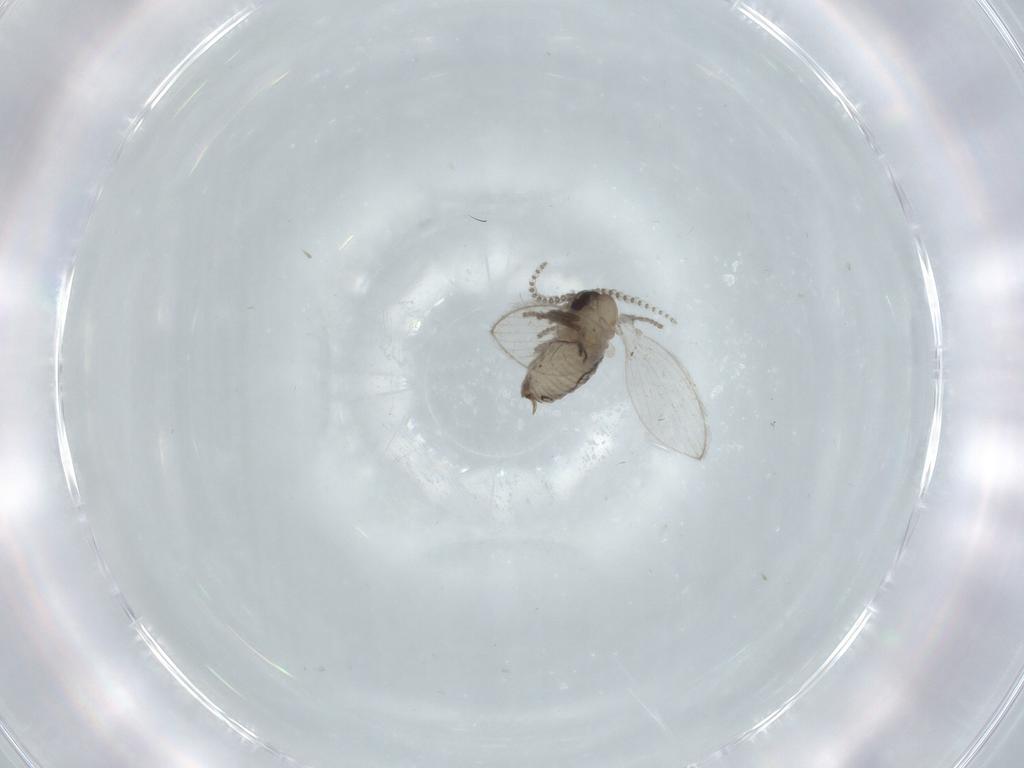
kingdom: Animalia
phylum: Arthropoda
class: Insecta
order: Diptera
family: Psychodidae
